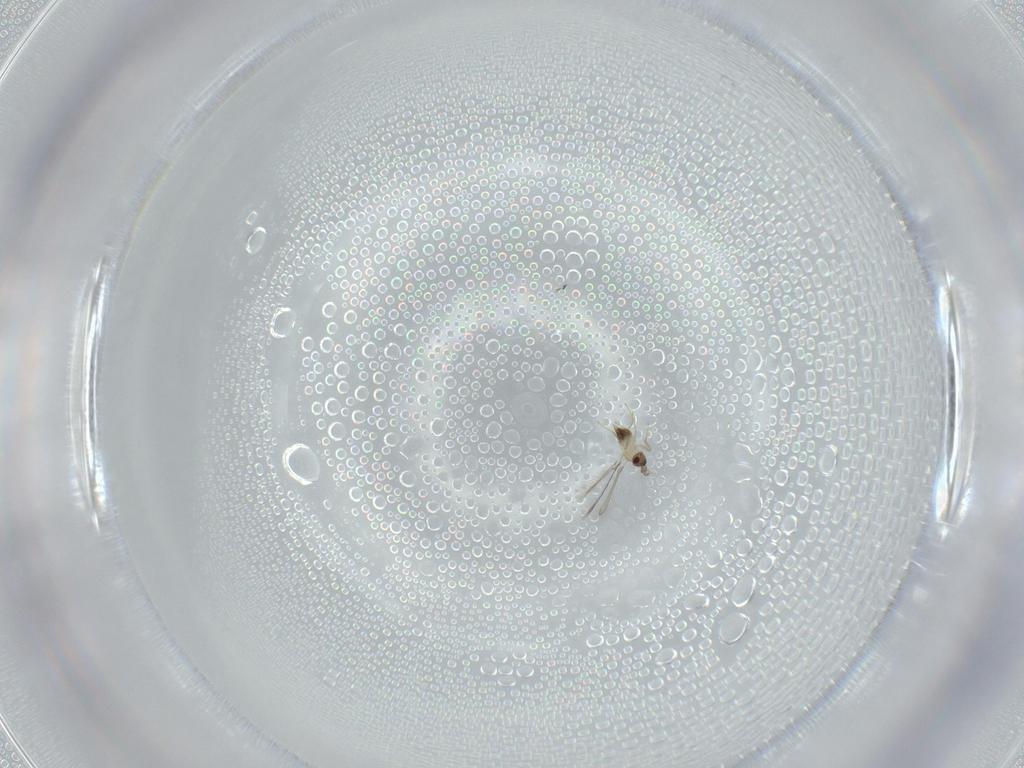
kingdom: Animalia
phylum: Arthropoda
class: Insecta
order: Hymenoptera
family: Mymaridae
